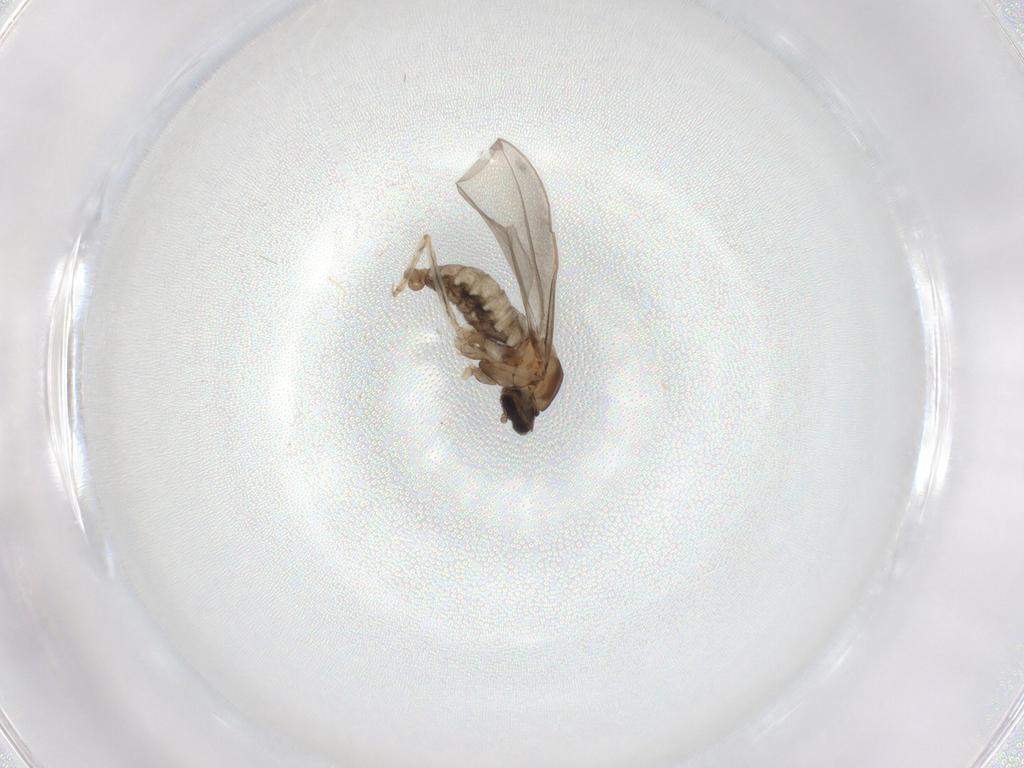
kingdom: Animalia
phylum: Arthropoda
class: Insecta
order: Diptera
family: Cecidomyiidae
